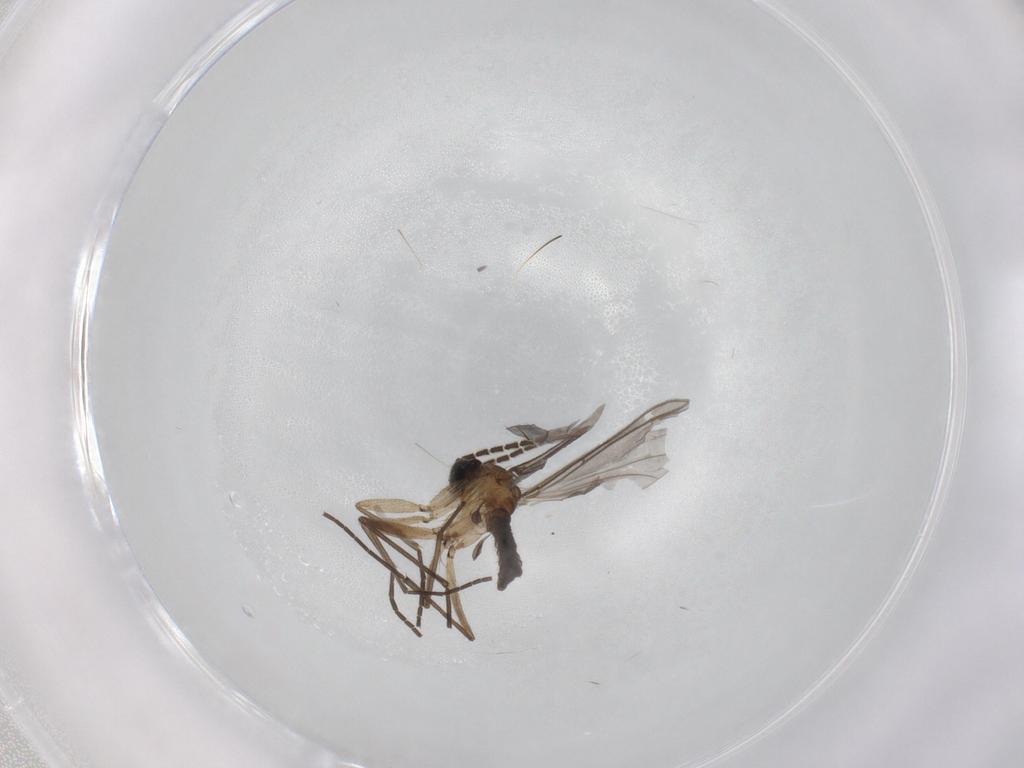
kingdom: Animalia
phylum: Arthropoda
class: Insecta
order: Diptera
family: Sciaridae
